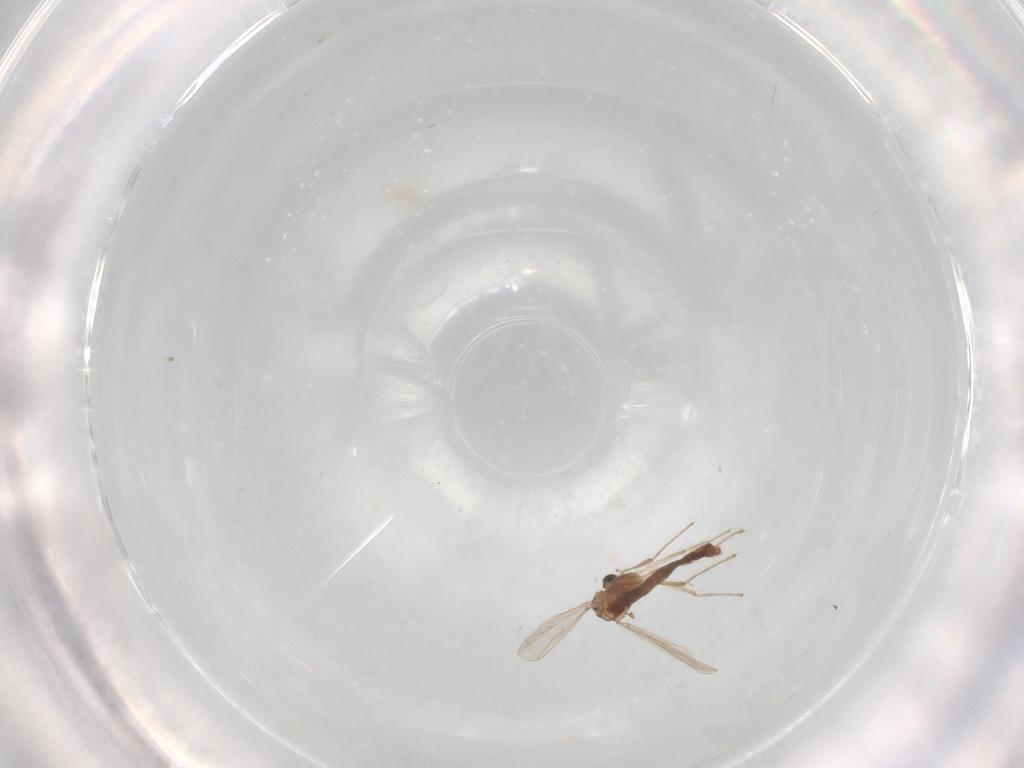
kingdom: Animalia
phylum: Arthropoda
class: Insecta
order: Diptera
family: Chironomidae
